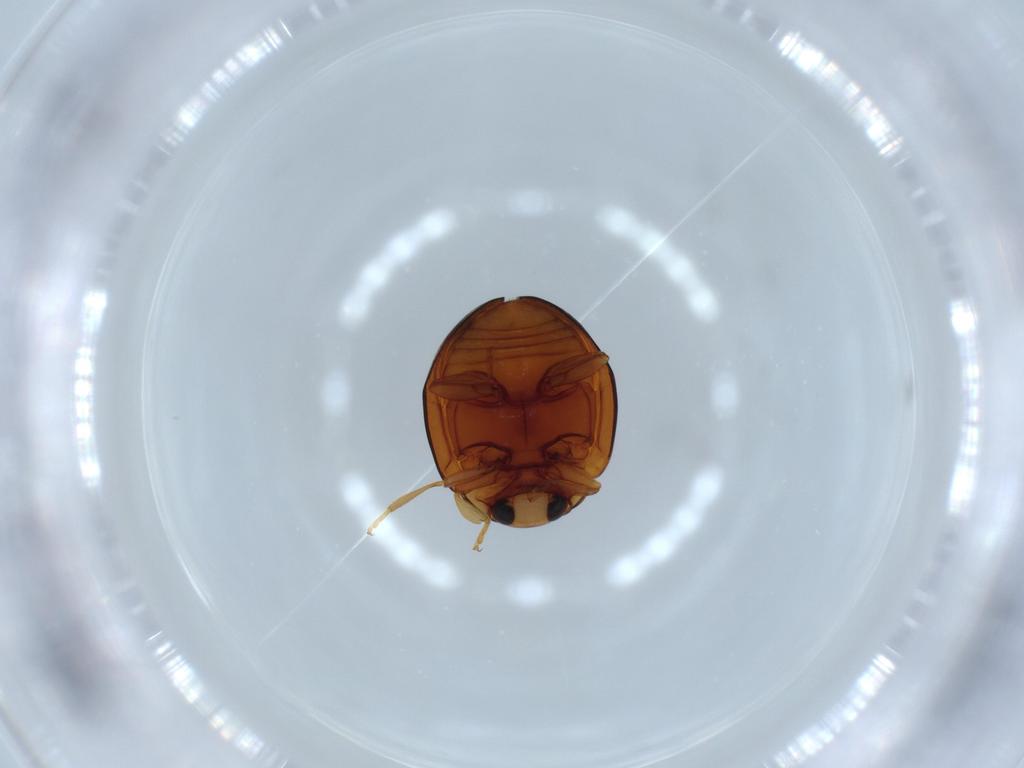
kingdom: Animalia
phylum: Arthropoda
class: Insecta
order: Coleoptera
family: Coccinellidae
